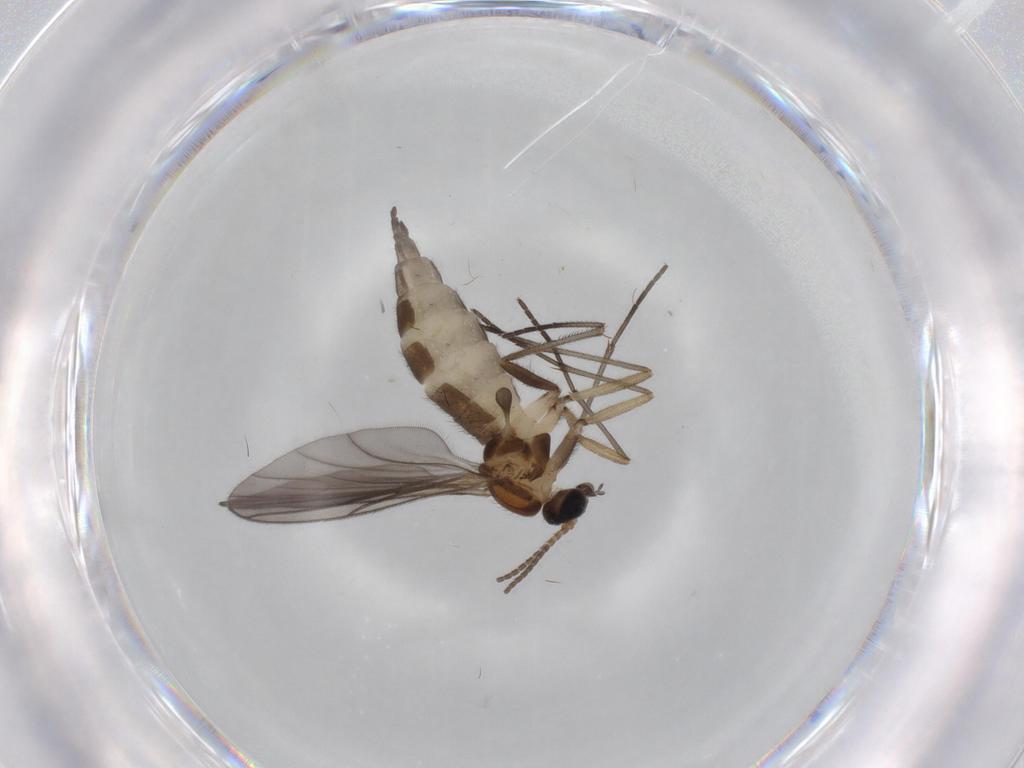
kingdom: Animalia
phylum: Arthropoda
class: Insecta
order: Diptera
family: Sciaridae
